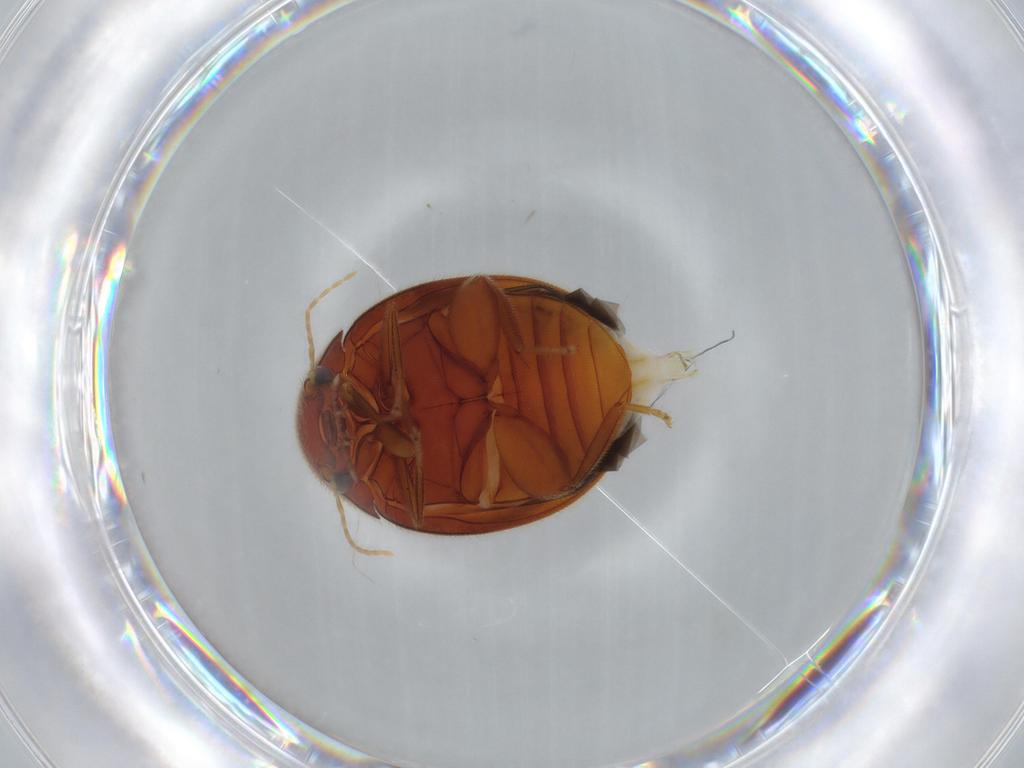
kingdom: Animalia
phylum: Arthropoda
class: Insecta
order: Coleoptera
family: Scirtidae
